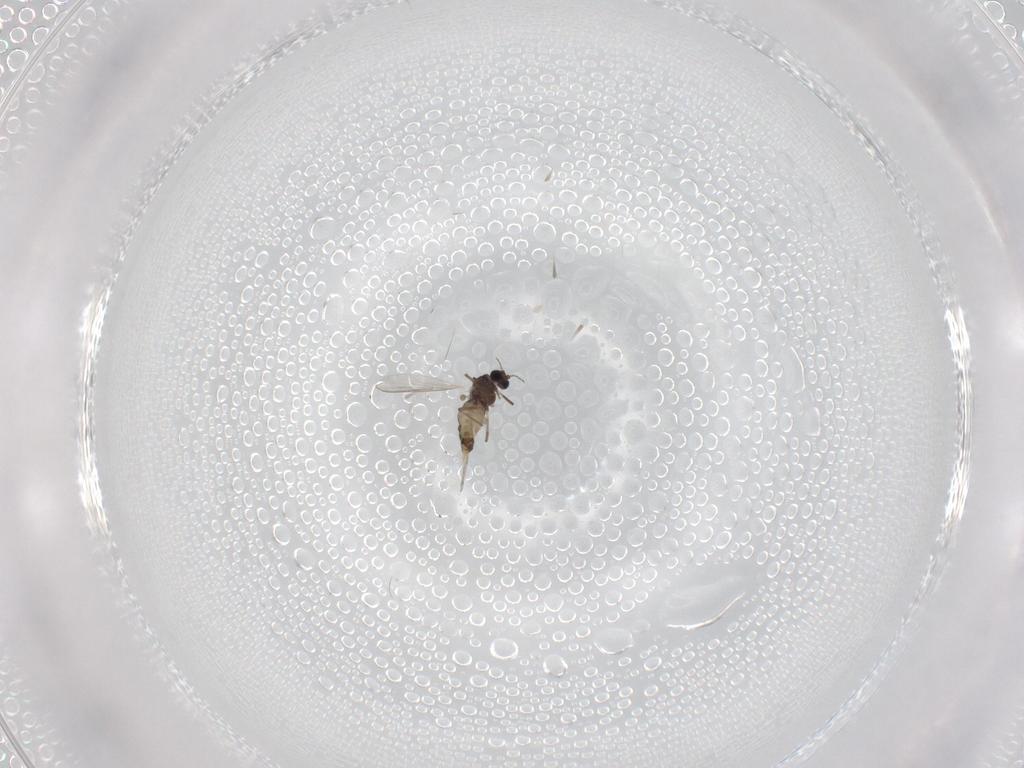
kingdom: Animalia
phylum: Arthropoda
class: Insecta
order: Diptera
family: Chironomidae
